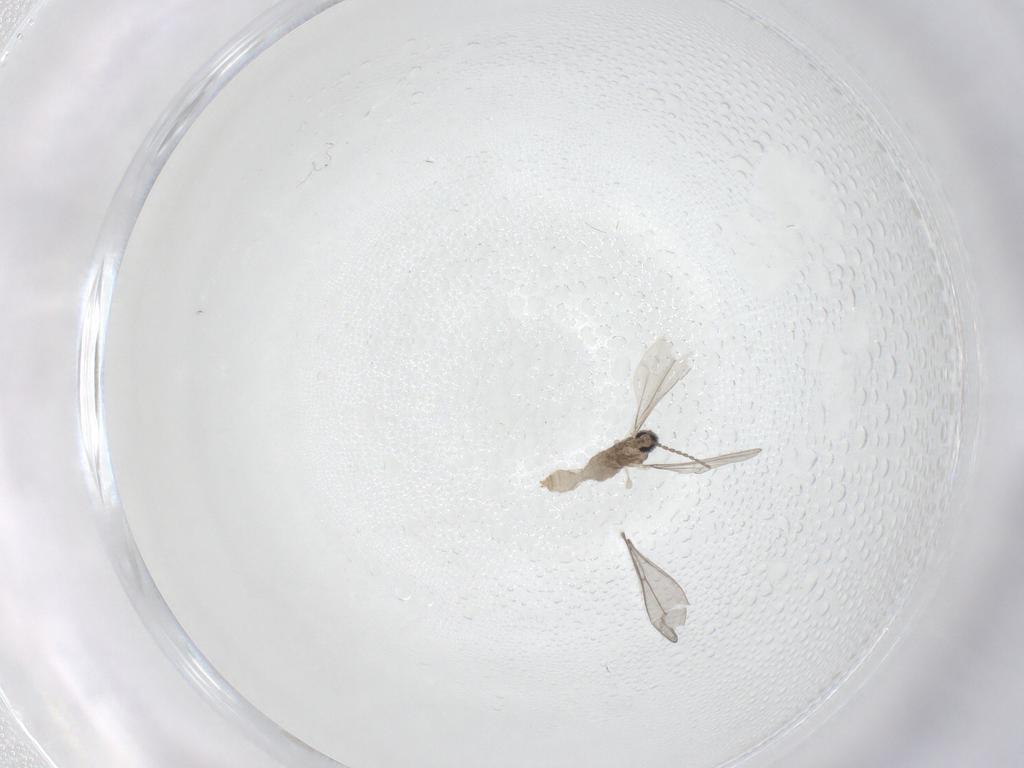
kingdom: Animalia
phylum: Arthropoda
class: Insecta
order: Diptera
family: Cecidomyiidae
